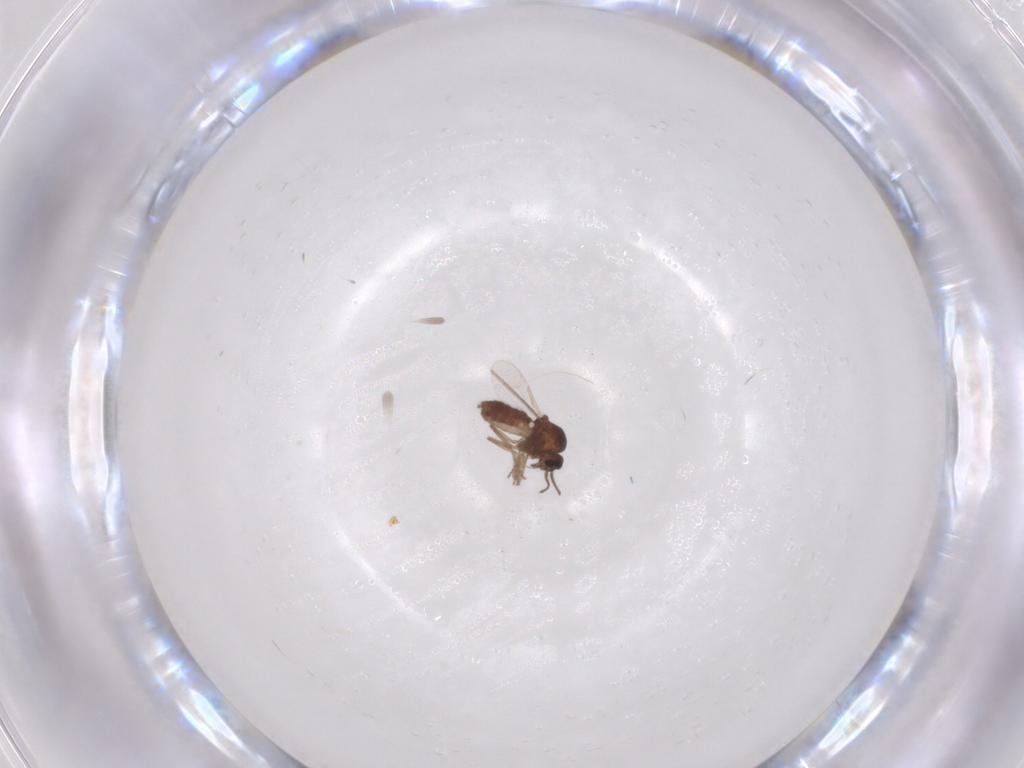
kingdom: Animalia
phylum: Arthropoda
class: Insecta
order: Diptera
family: Ceratopogonidae
